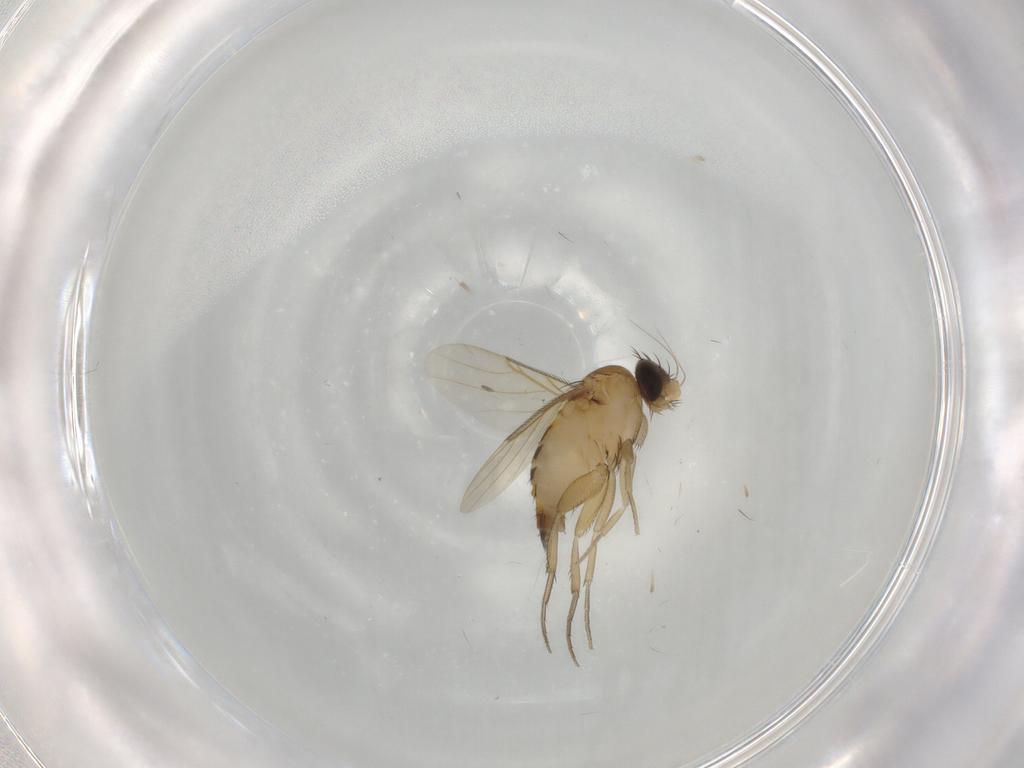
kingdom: Animalia
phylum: Arthropoda
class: Insecta
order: Diptera
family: Phoridae
